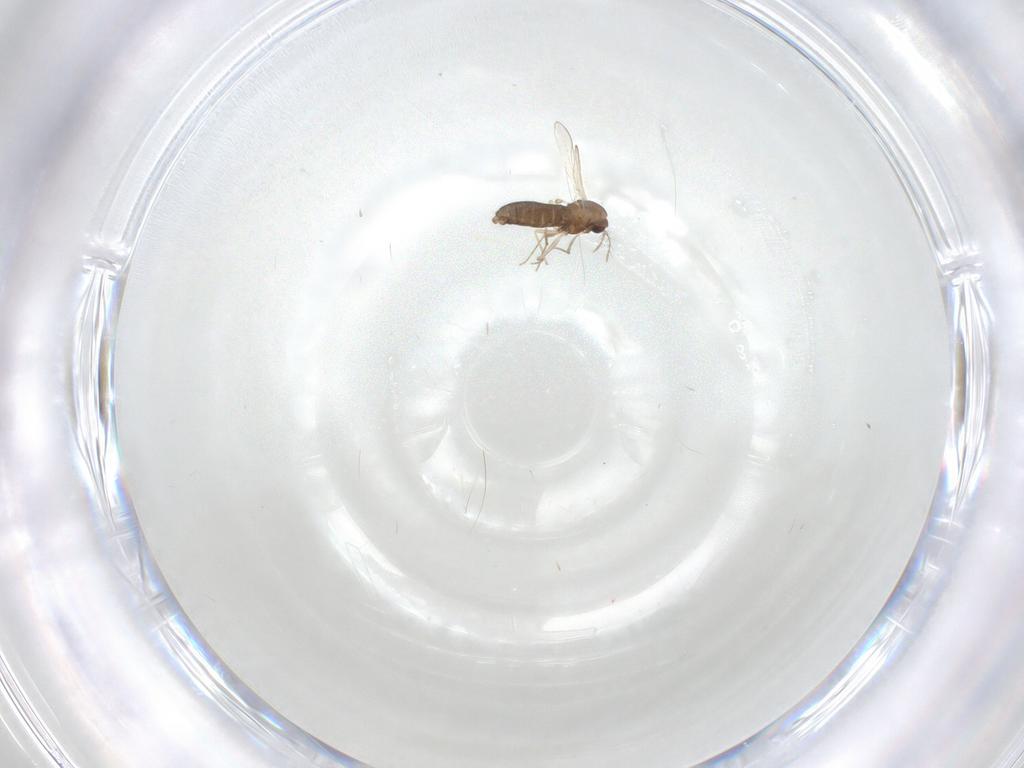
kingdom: Animalia
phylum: Arthropoda
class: Insecta
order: Diptera
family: Chironomidae
